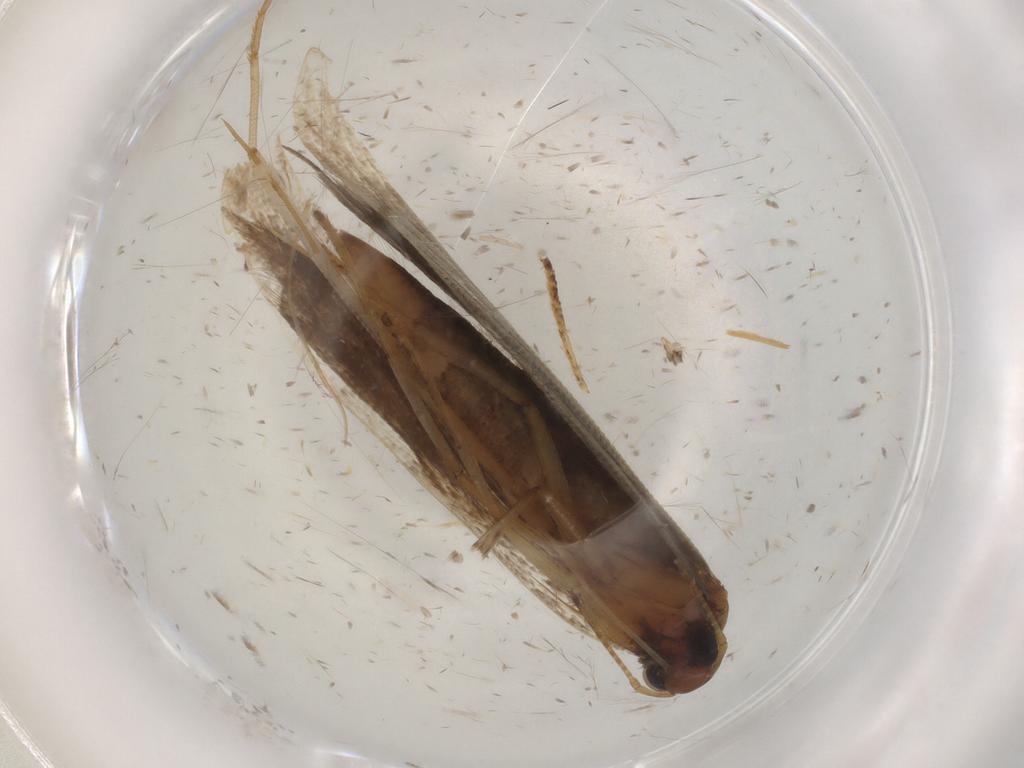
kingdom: Animalia
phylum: Arthropoda
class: Insecta
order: Lepidoptera
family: Gelechiidae
